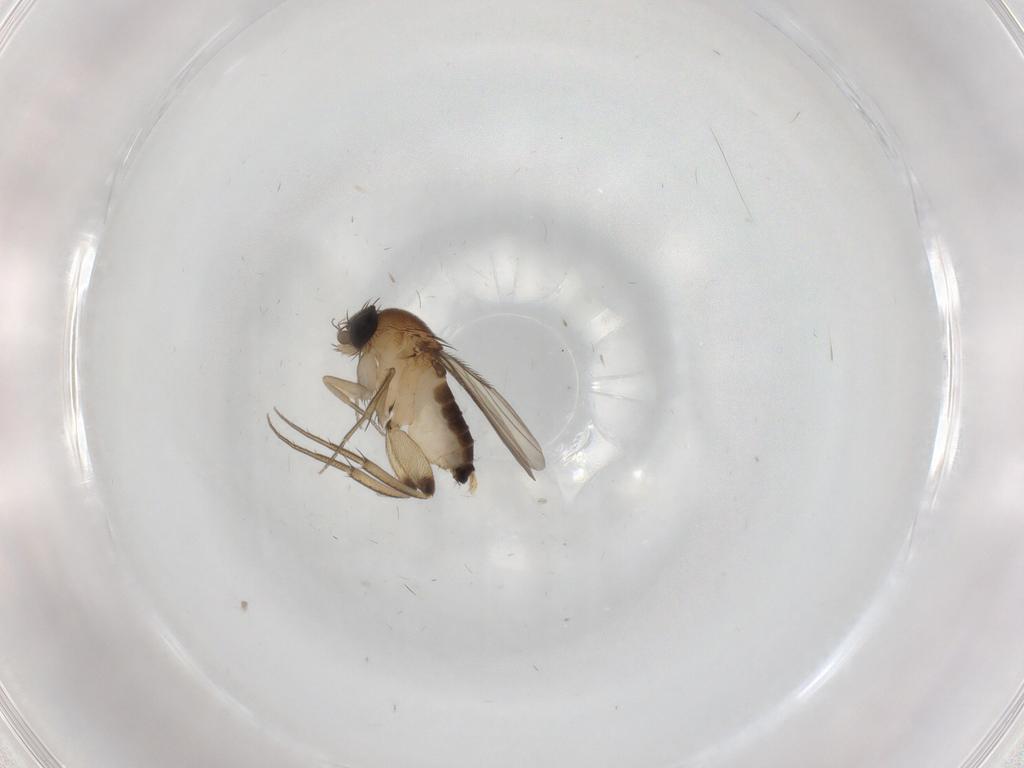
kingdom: Animalia
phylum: Arthropoda
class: Insecta
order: Diptera
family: Phoridae
